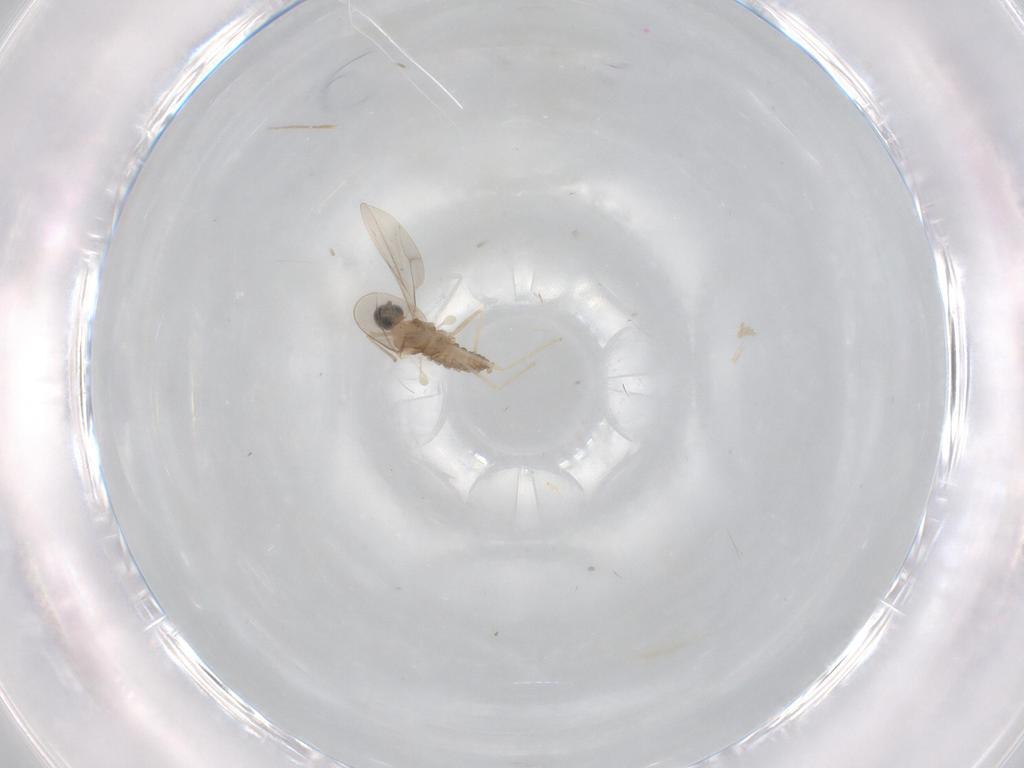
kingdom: Animalia
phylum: Arthropoda
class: Insecta
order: Diptera
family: Cecidomyiidae
